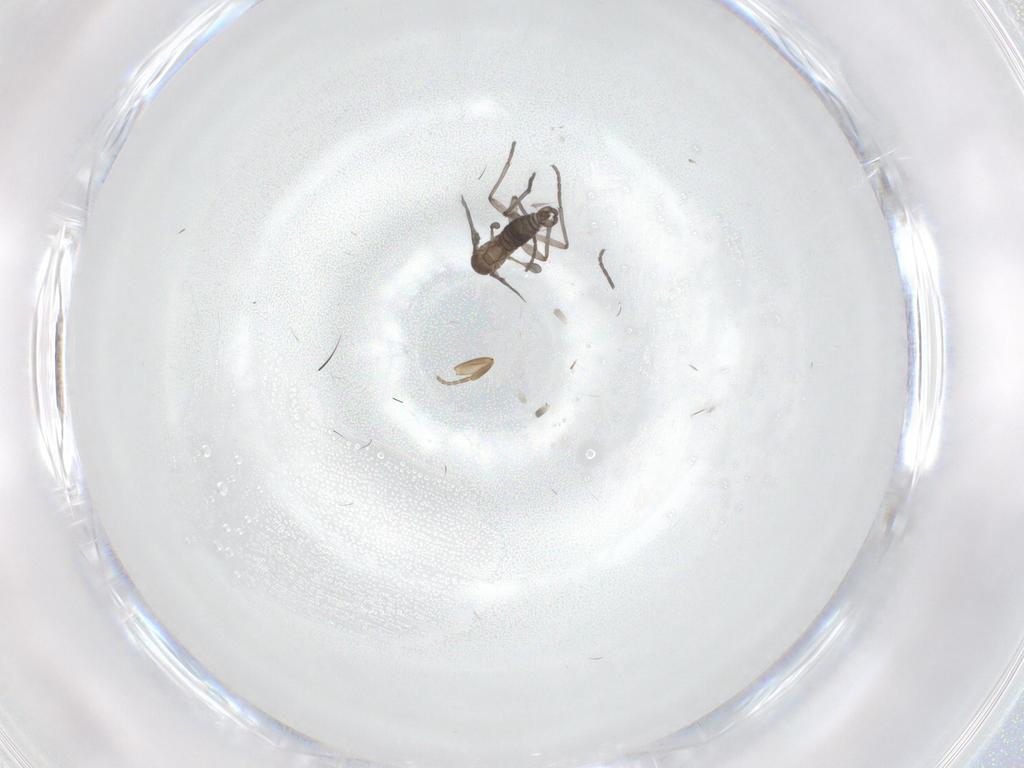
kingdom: Animalia
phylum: Arthropoda
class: Insecta
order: Diptera
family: Sciaridae
